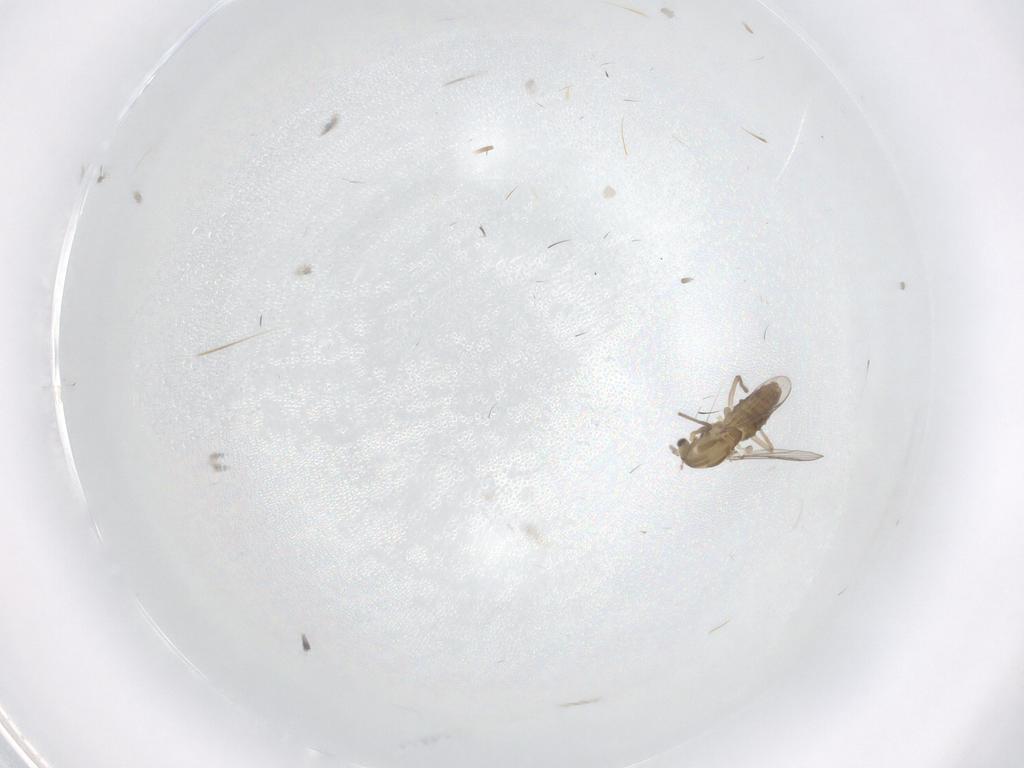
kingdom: Animalia
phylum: Arthropoda
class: Insecta
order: Diptera
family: Chironomidae
